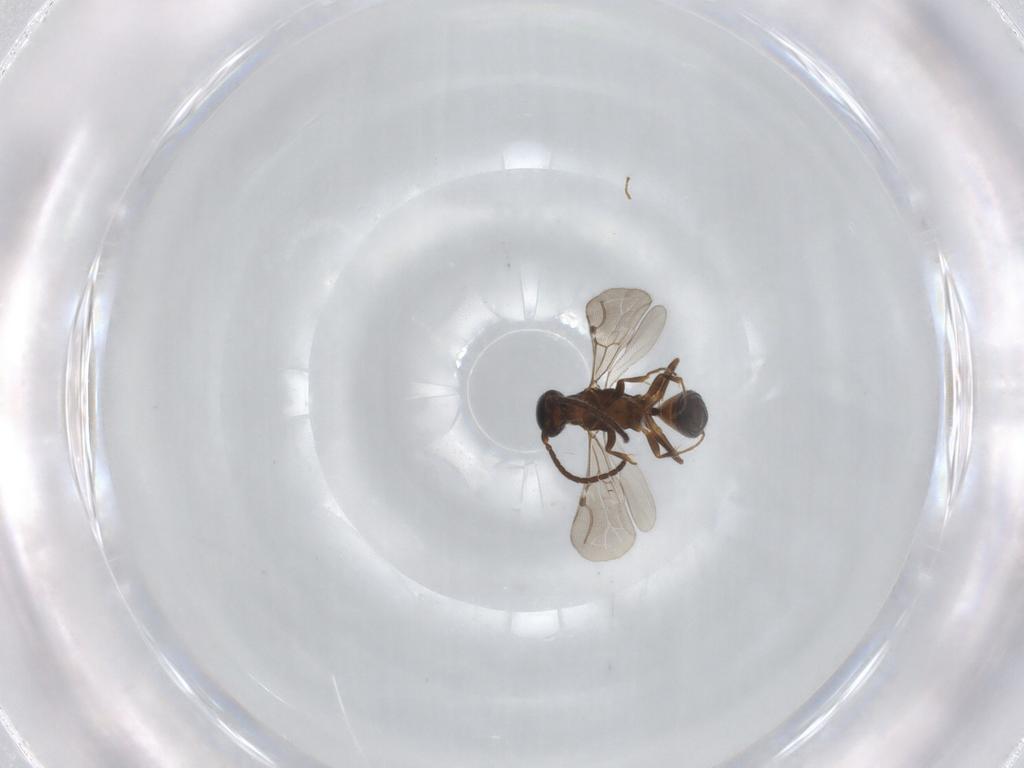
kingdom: Animalia
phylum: Arthropoda
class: Insecta
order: Hymenoptera
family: Bethylidae
